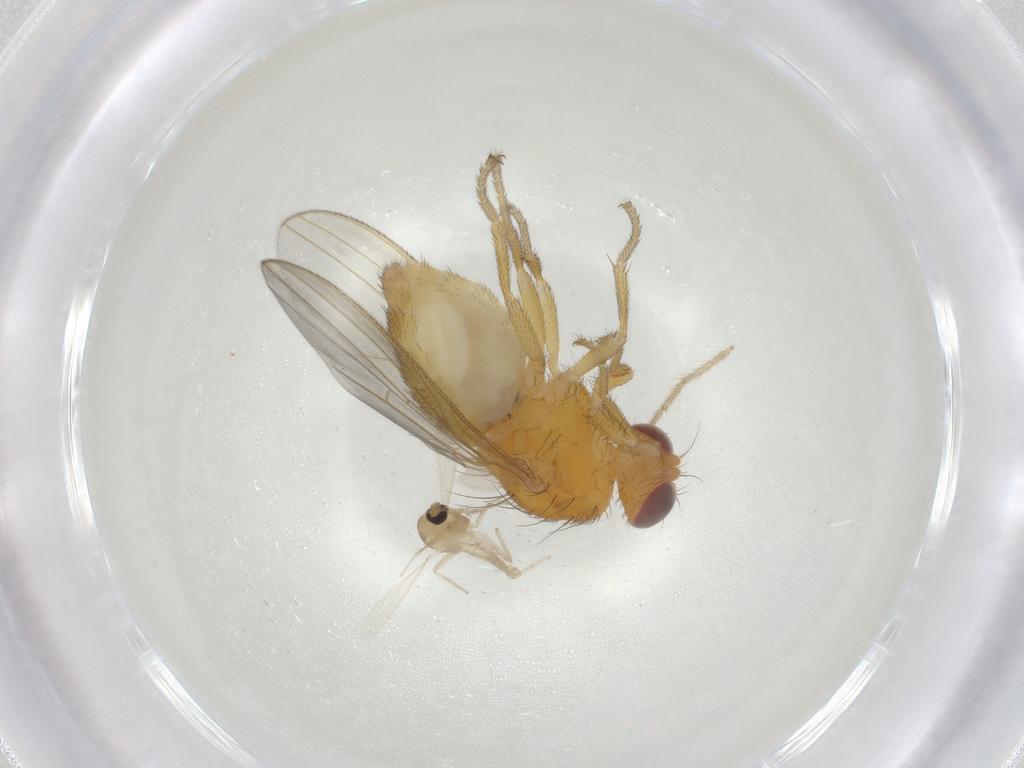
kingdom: Animalia
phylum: Arthropoda
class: Insecta
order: Diptera
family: Chironomidae
